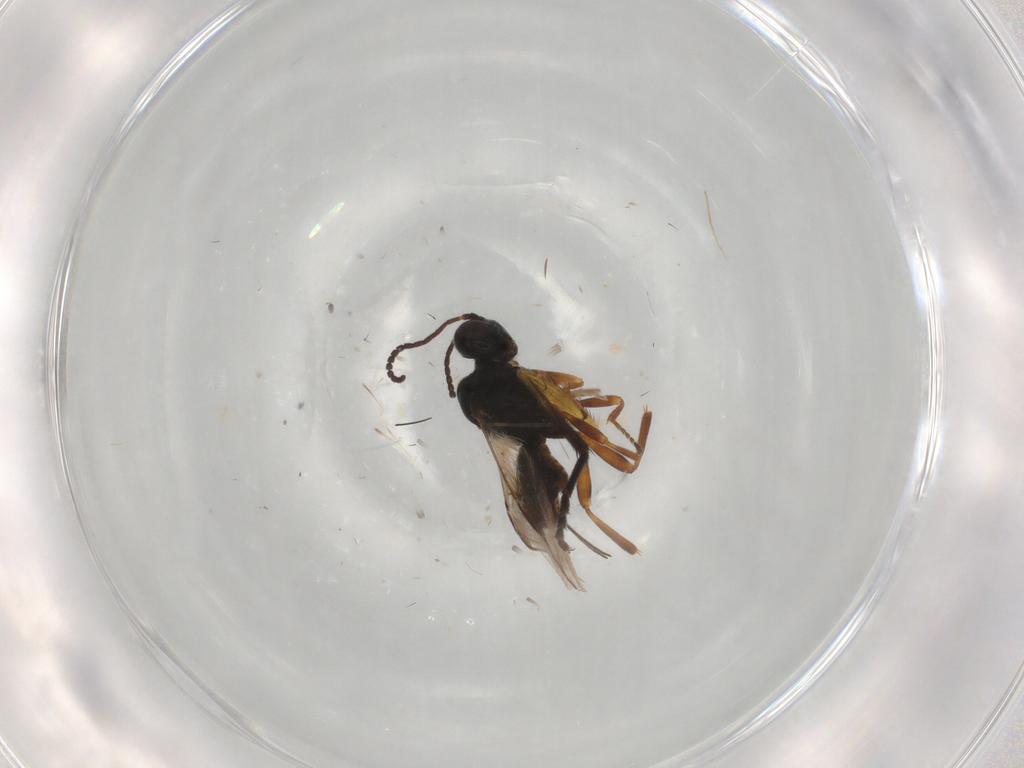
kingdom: Animalia
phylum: Arthropoda
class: Insecta
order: Hymenoptera
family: Braconidae
